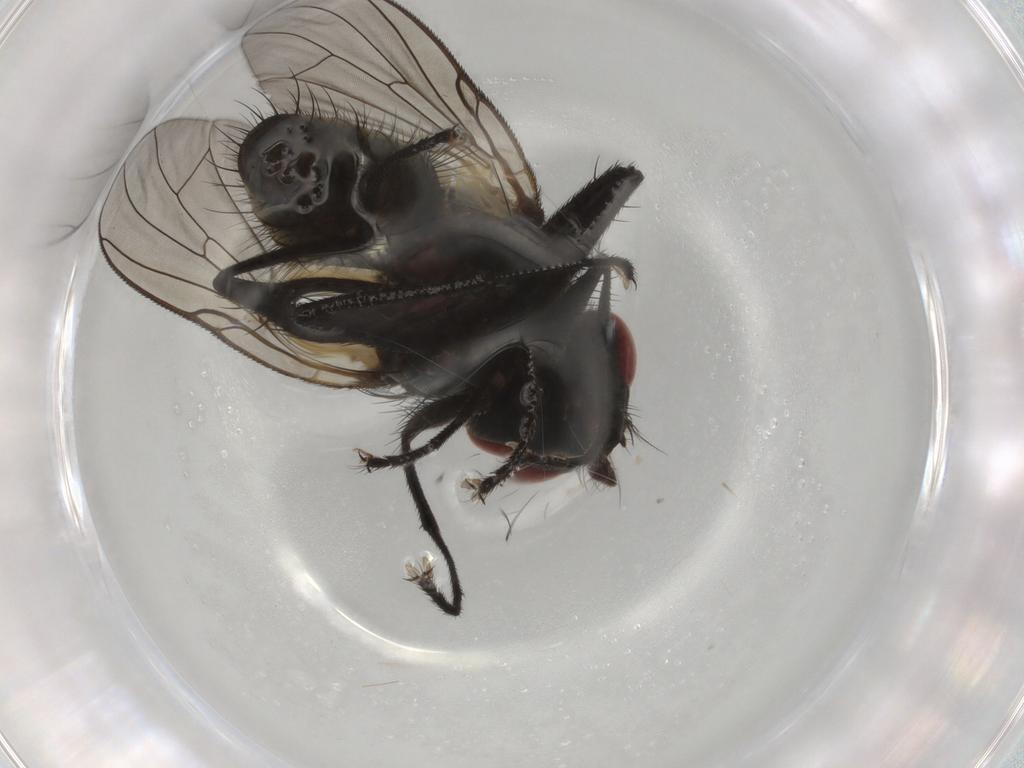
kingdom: Animalia
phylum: Arthropoda
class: Insecta
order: Diptera
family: Muscidae
